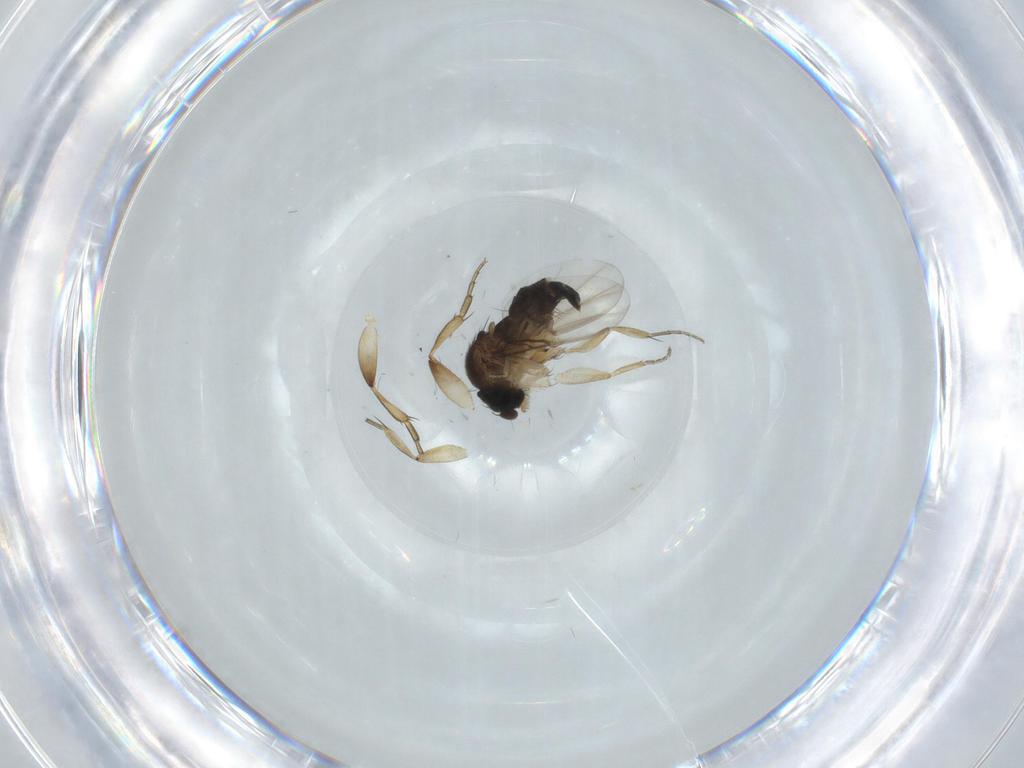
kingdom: Animalia
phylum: Arthropoda
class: Insecta
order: Diptera
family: Phoridae
